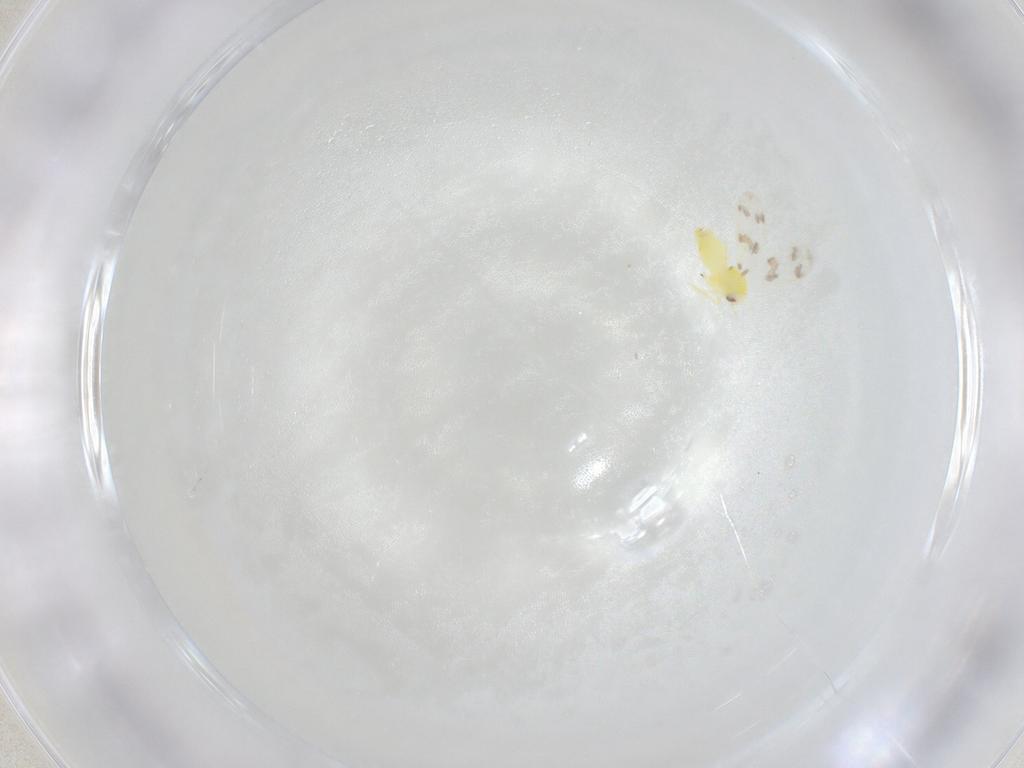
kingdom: Animalia
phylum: Arthropoda
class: Insecta
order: Hemiptera
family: Aleyrodidae
